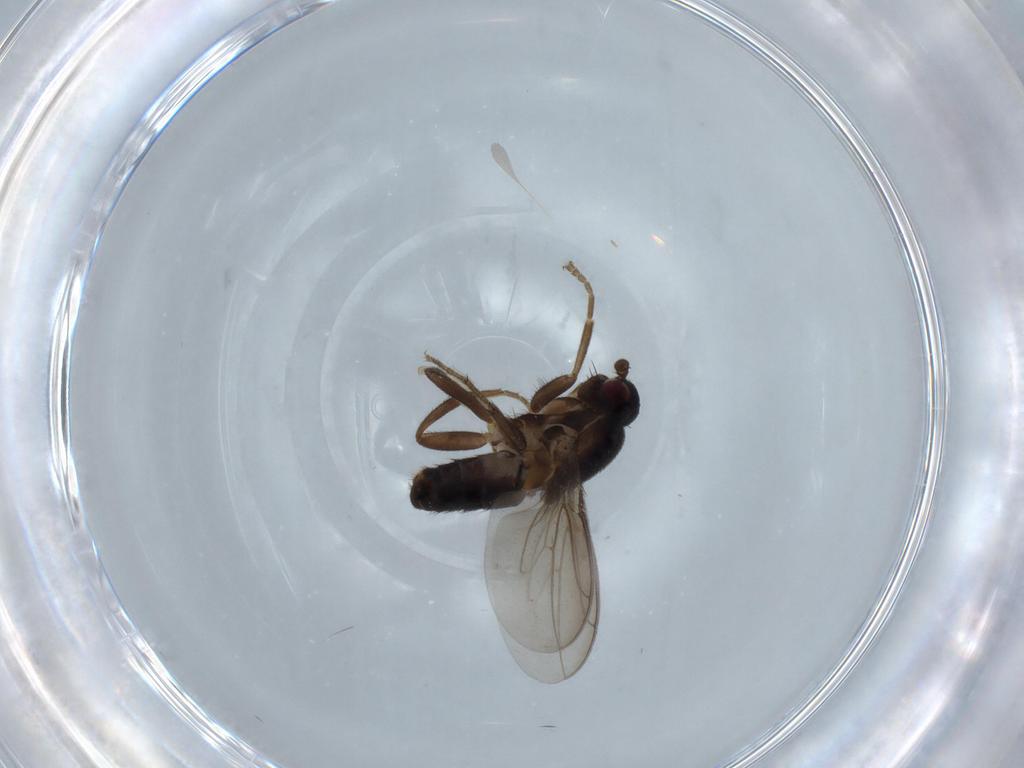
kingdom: Animalia
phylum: Arthropoda
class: Insecta
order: Diptera
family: Sphaeroceridae
